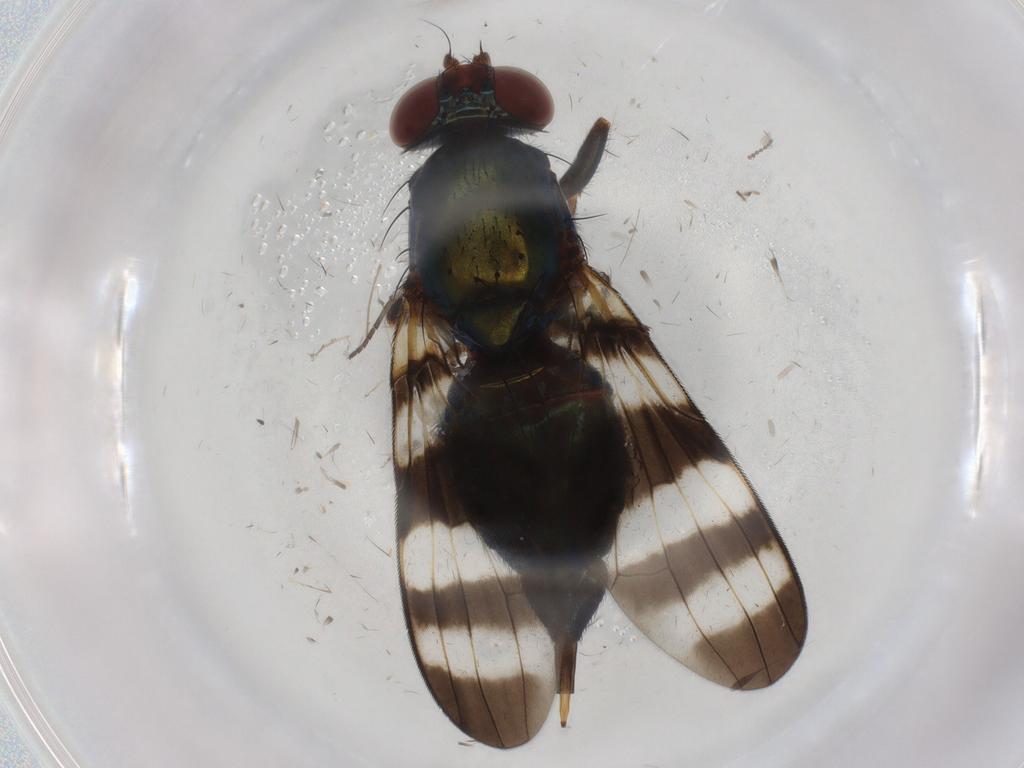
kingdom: Animalia
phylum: Arthropoda
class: Insecta
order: Diptera
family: Sciaridae
